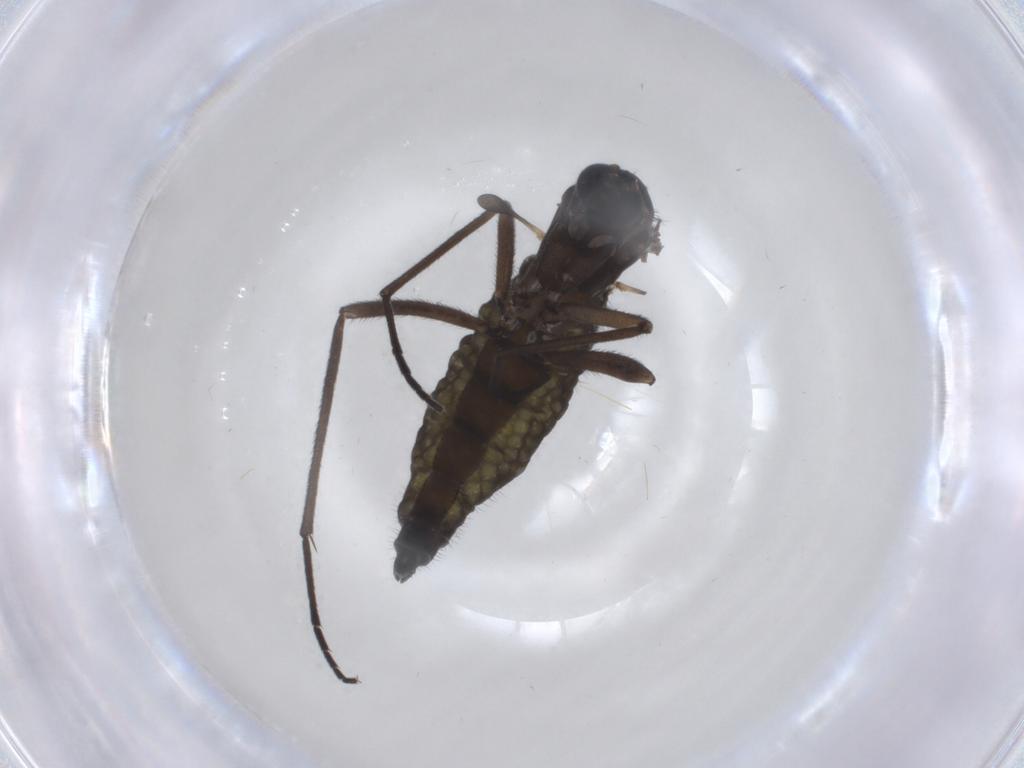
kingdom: Animalia
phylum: Arthropoda
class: Insecta
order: Diptera
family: Sciaridae
